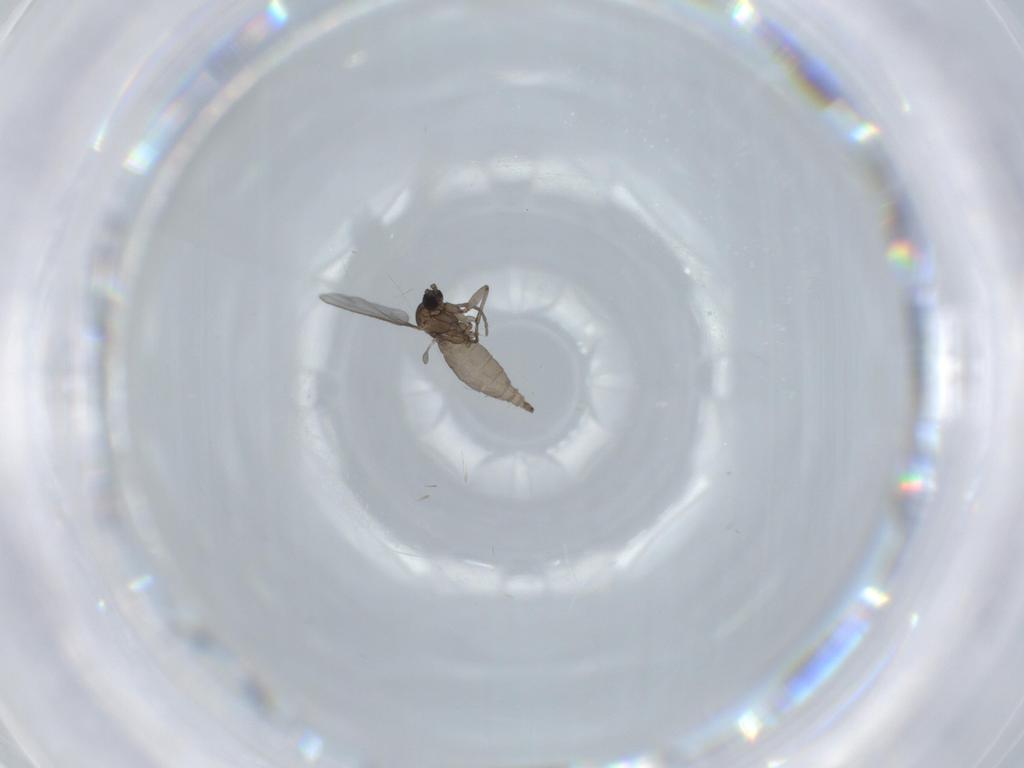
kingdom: Animalia
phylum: Arthropoda
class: Insecta
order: Diptera
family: Sciaridae
